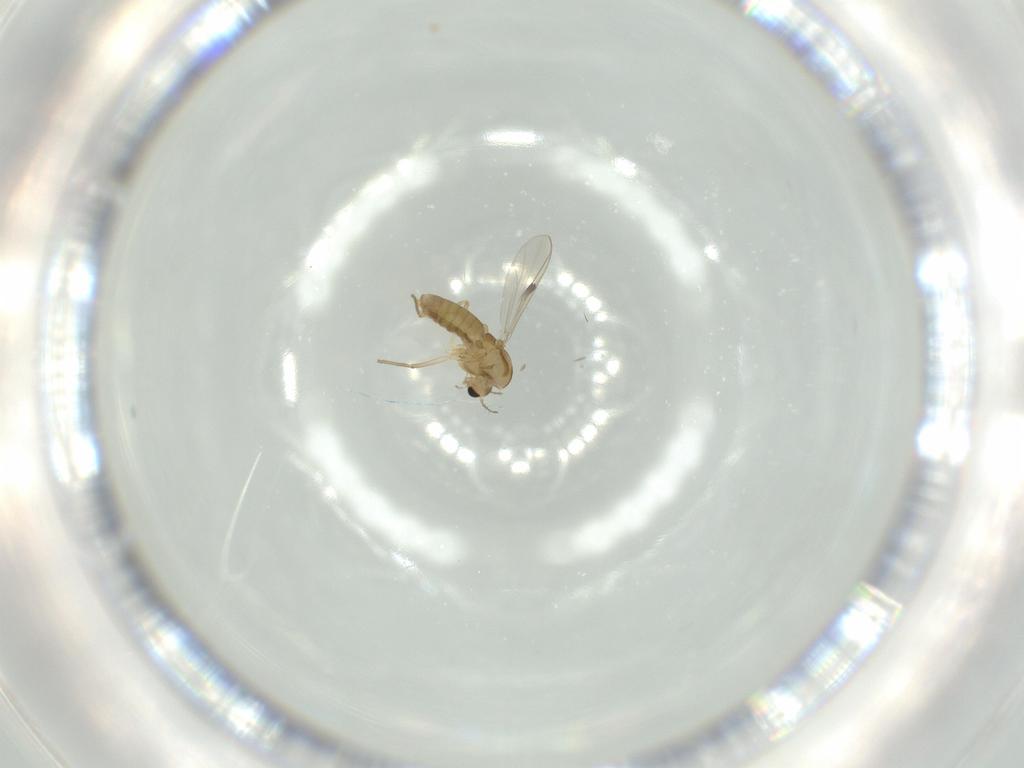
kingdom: Animalia
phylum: Arthropoda
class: Insecta
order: Diptera
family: Chironomidae
